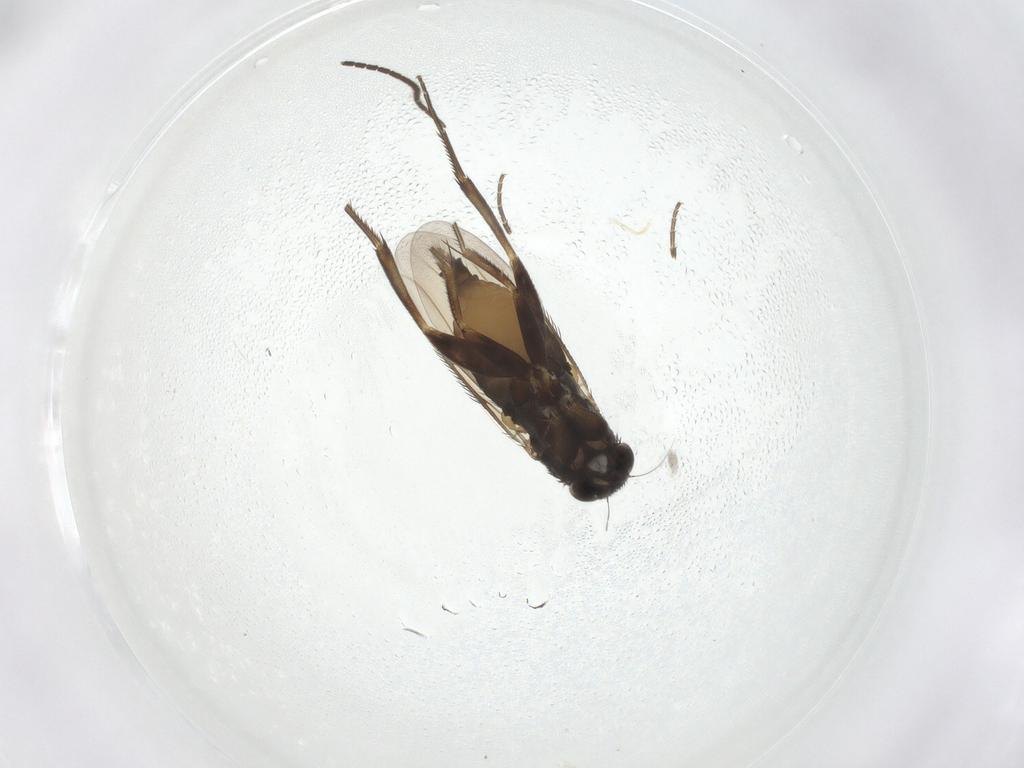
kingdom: Animalia
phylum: Arthropoda
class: Insecta
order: Diptera
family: Phoridae
